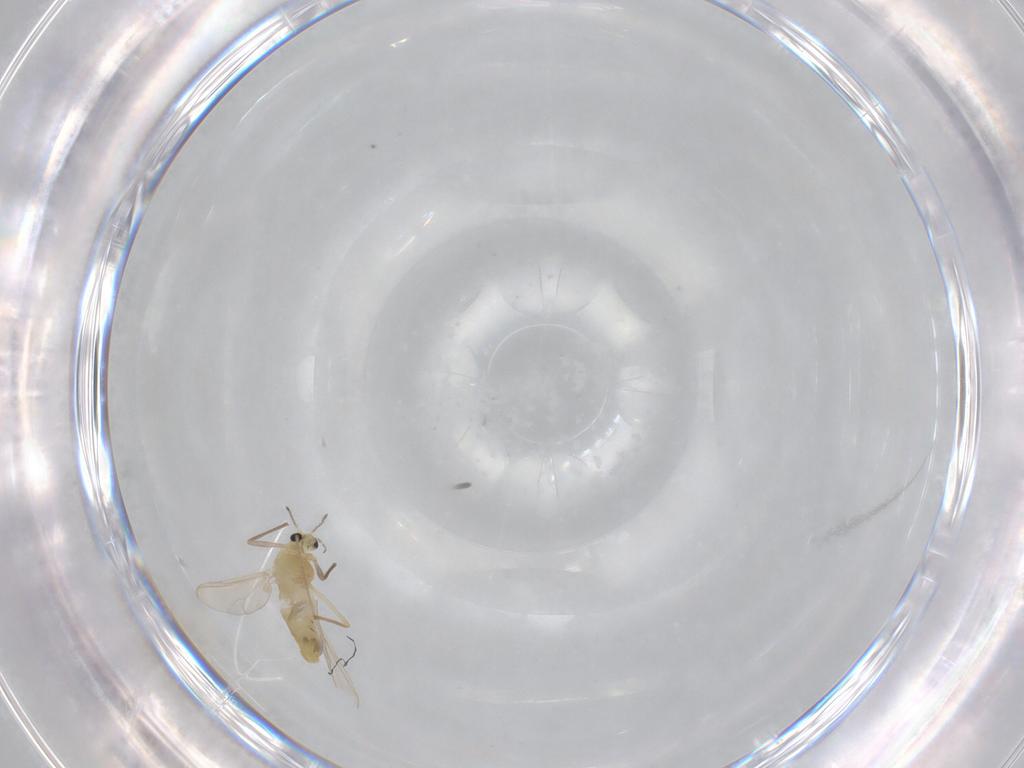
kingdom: Animalia
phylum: Arthropoda
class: Insecta
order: Diptera
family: Chironomidae
